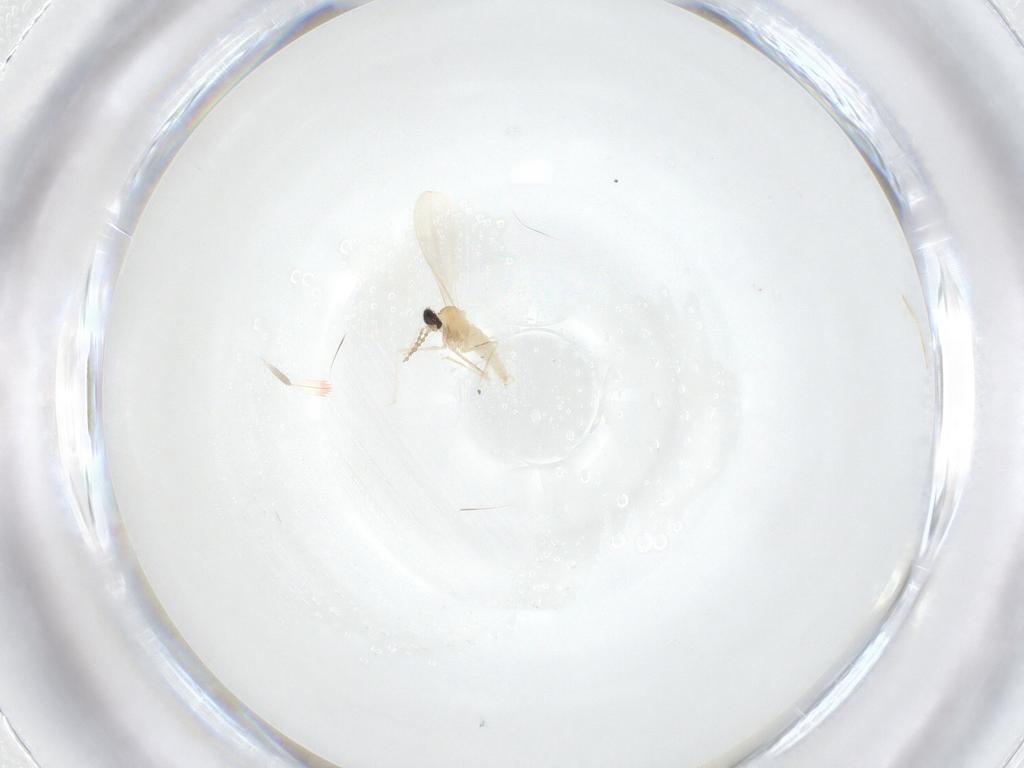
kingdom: Animalia
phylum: Arthropoda
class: Insecta
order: Diptera
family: Cecidomyiidae
